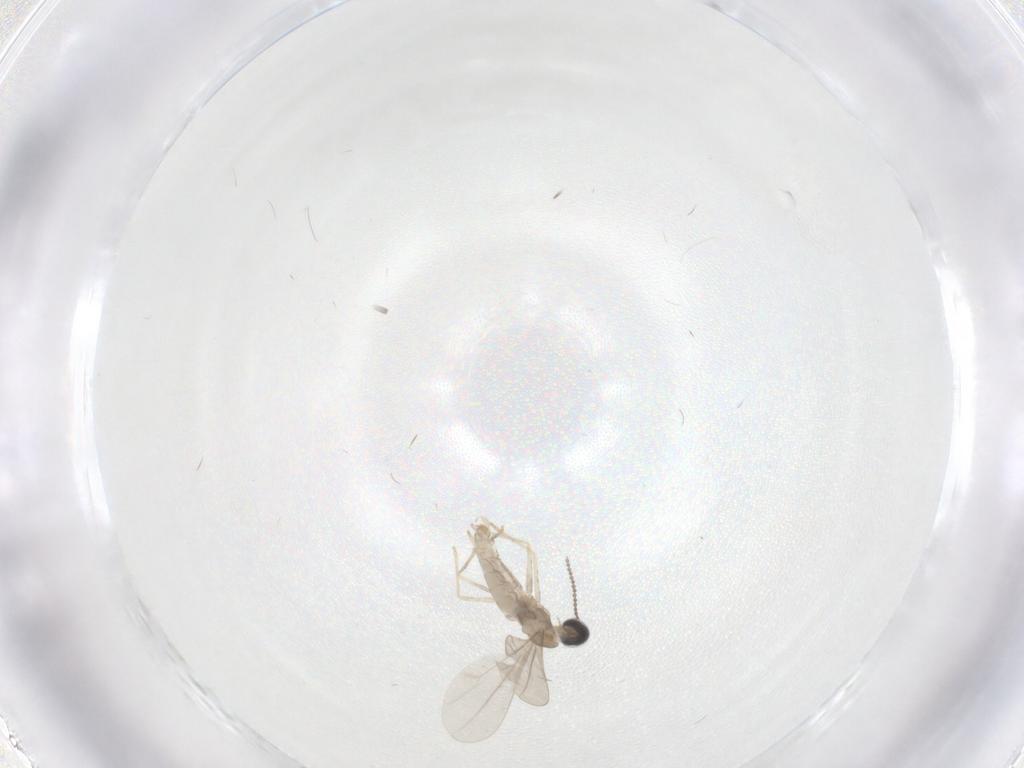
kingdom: Animalia
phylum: Arthropoda
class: Insecta
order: Diptera
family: Cecidomyiidae
